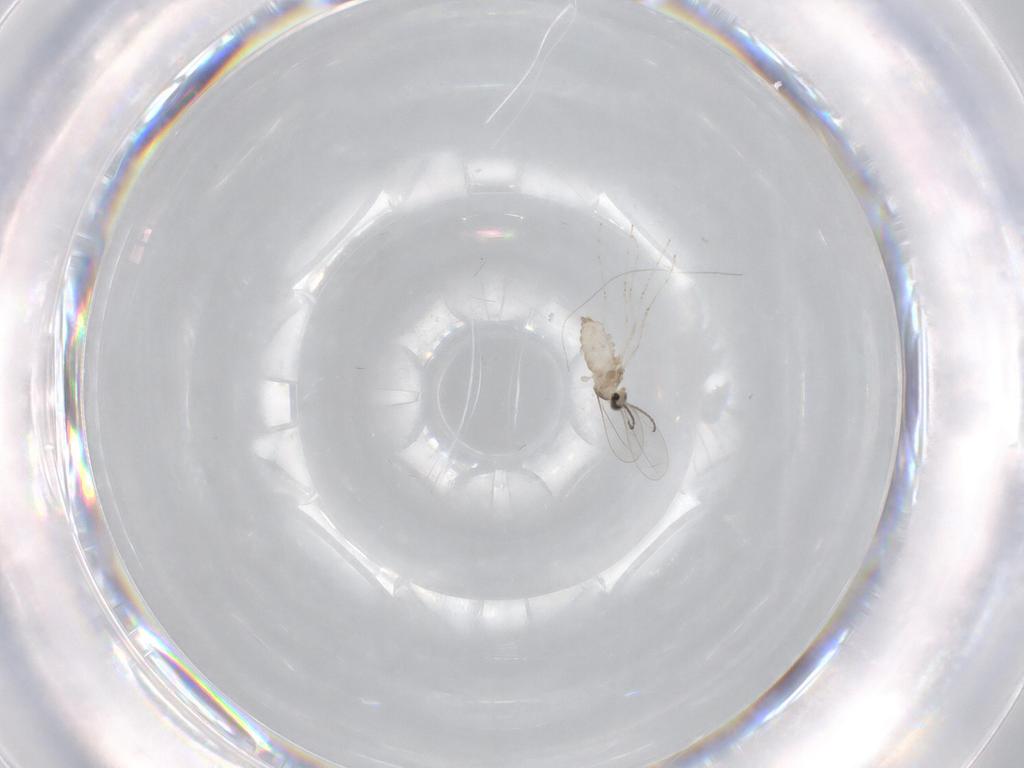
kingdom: Animalia
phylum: Arthropoda
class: Insecta
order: Diptera
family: Cecidomyiidae
